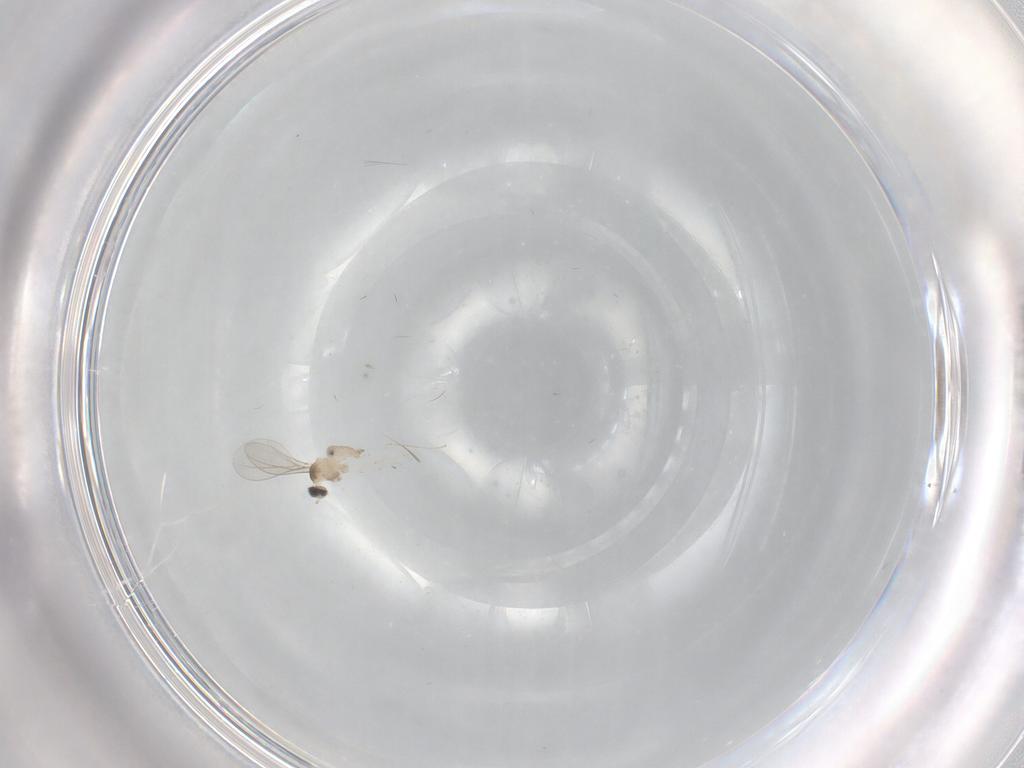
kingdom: Animalia
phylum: Arthropoda
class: Insecta
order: Diptera
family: Cecidomyiidae
